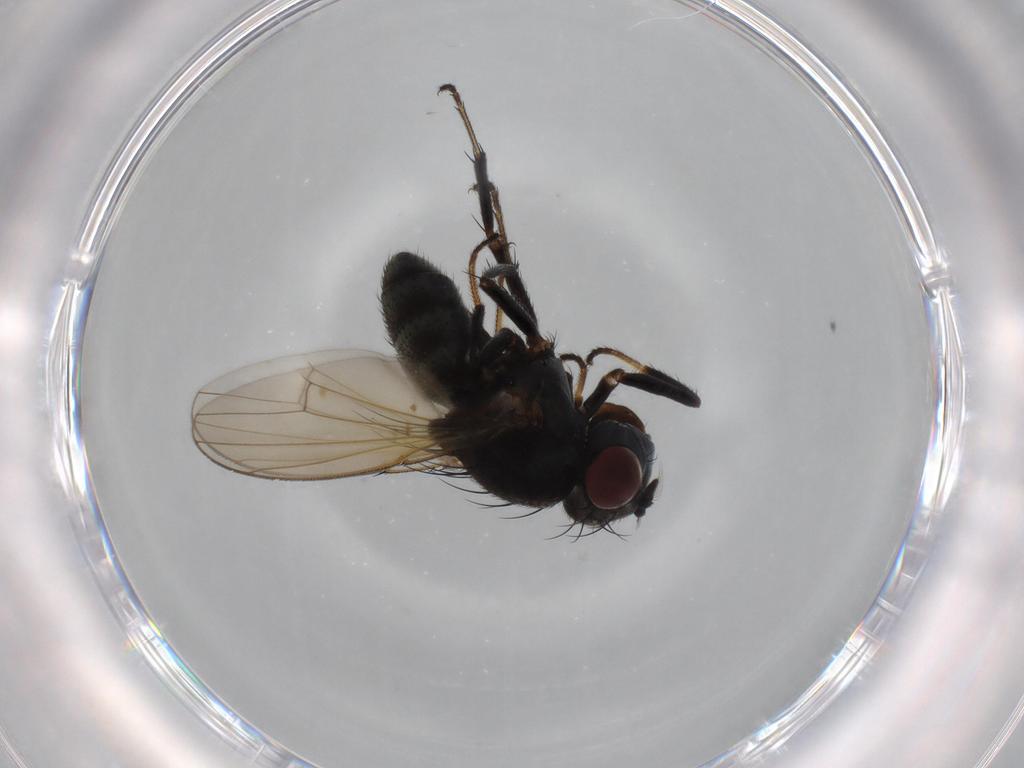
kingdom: Animalia
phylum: Arthropoda
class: Insecta
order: Diptera
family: Ephydridae
